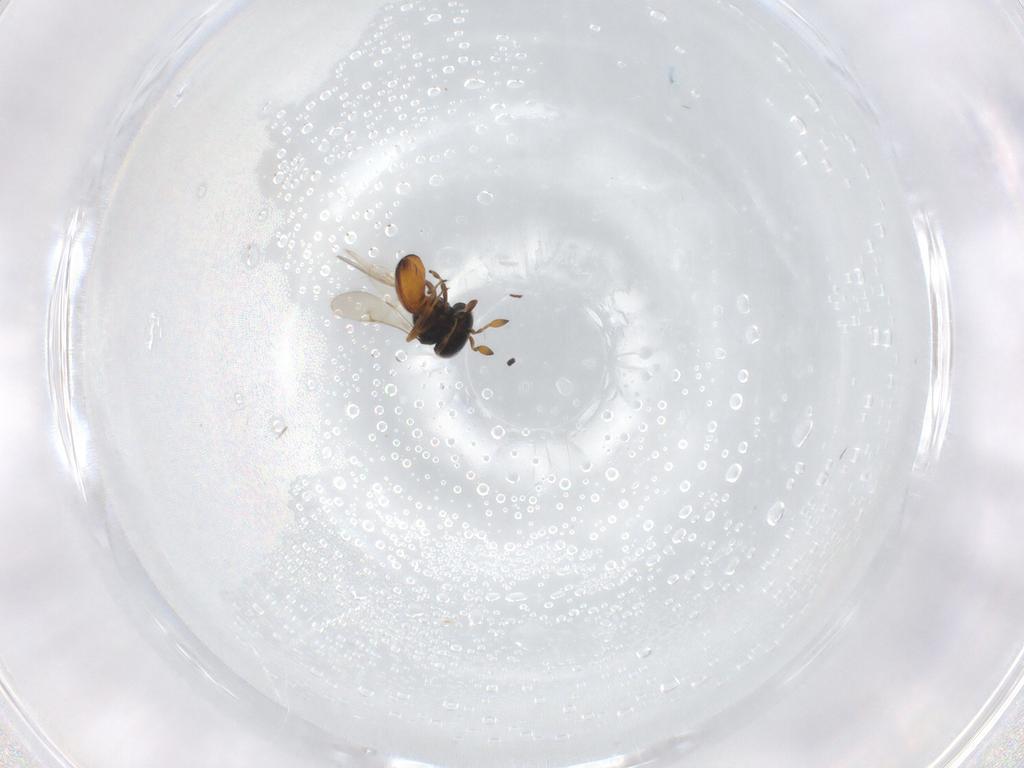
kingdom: Animalia
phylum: Arthropoda
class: Insecta
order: Hymenoptera
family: Scelionidae
